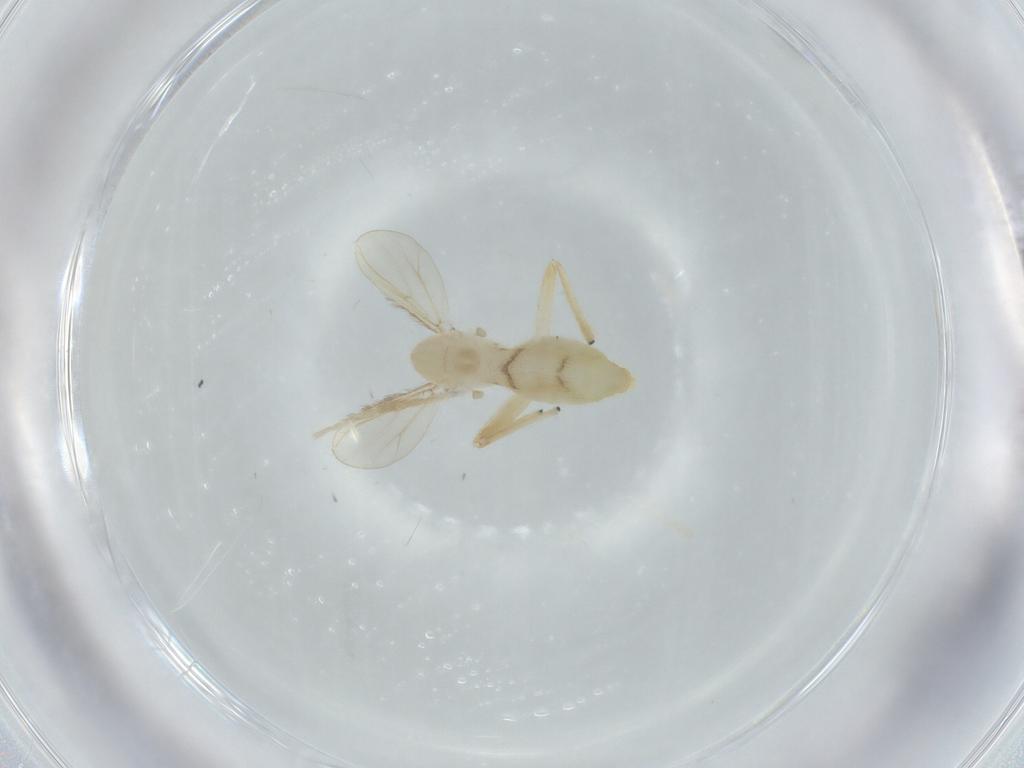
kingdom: Animalia
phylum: Arthropoda
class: Insecta
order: Diptera
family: Chironomidae
